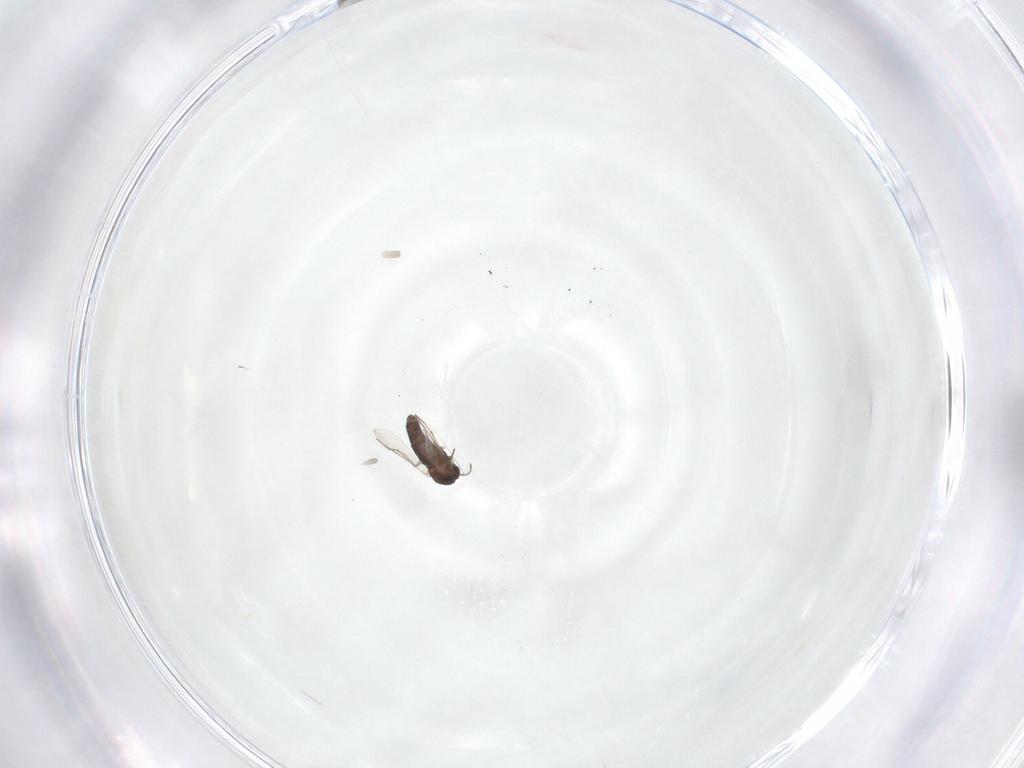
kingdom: Animalia
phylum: Arthropoda
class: Insecta
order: Diptera
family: Chironomidae
